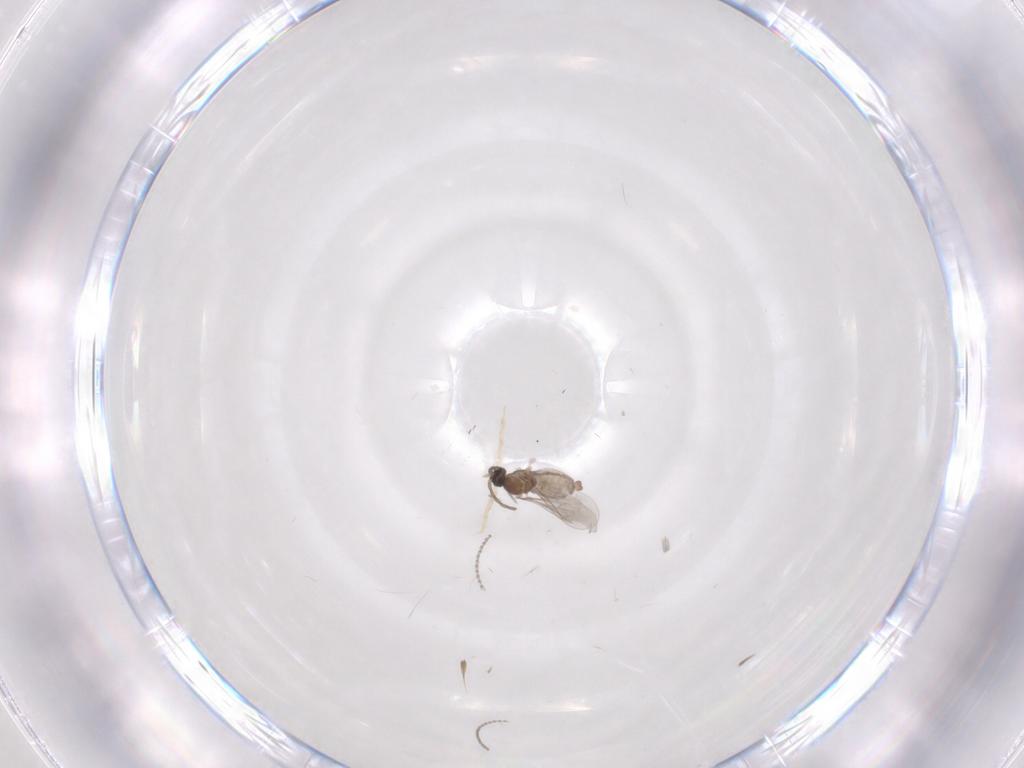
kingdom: Animalia
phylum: Arthropoda
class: Insecta
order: Diptera
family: Cecidomyiidae
